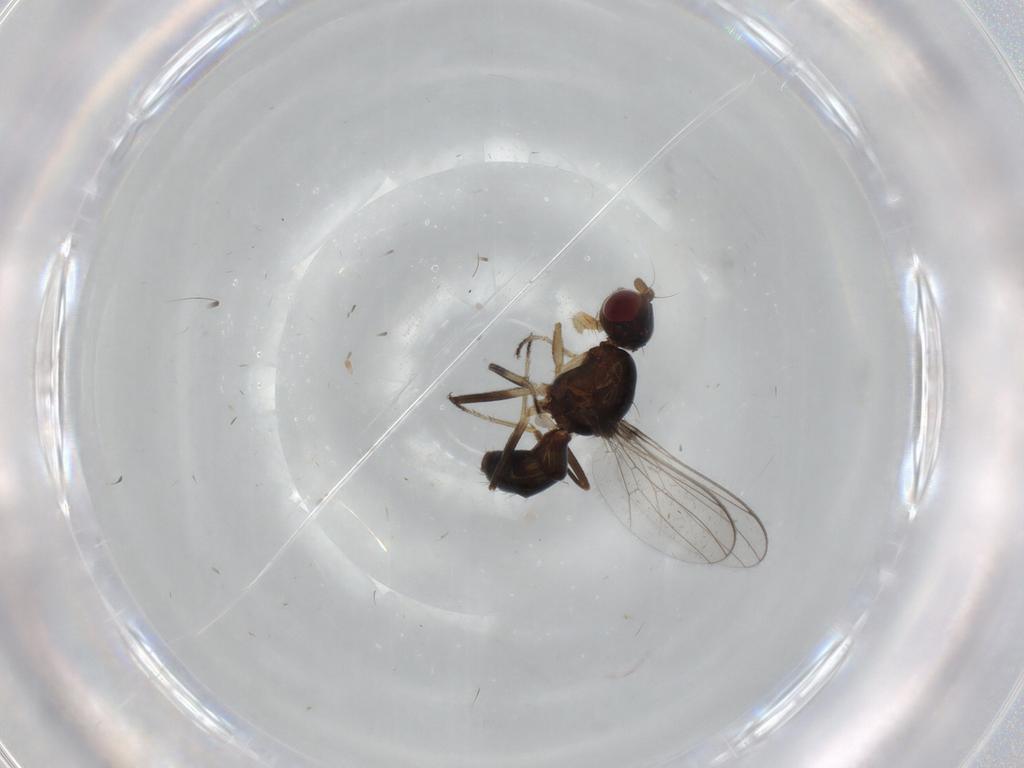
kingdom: Animalia
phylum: Arthropoda
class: Insecta
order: Diptera
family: Sepsidae
